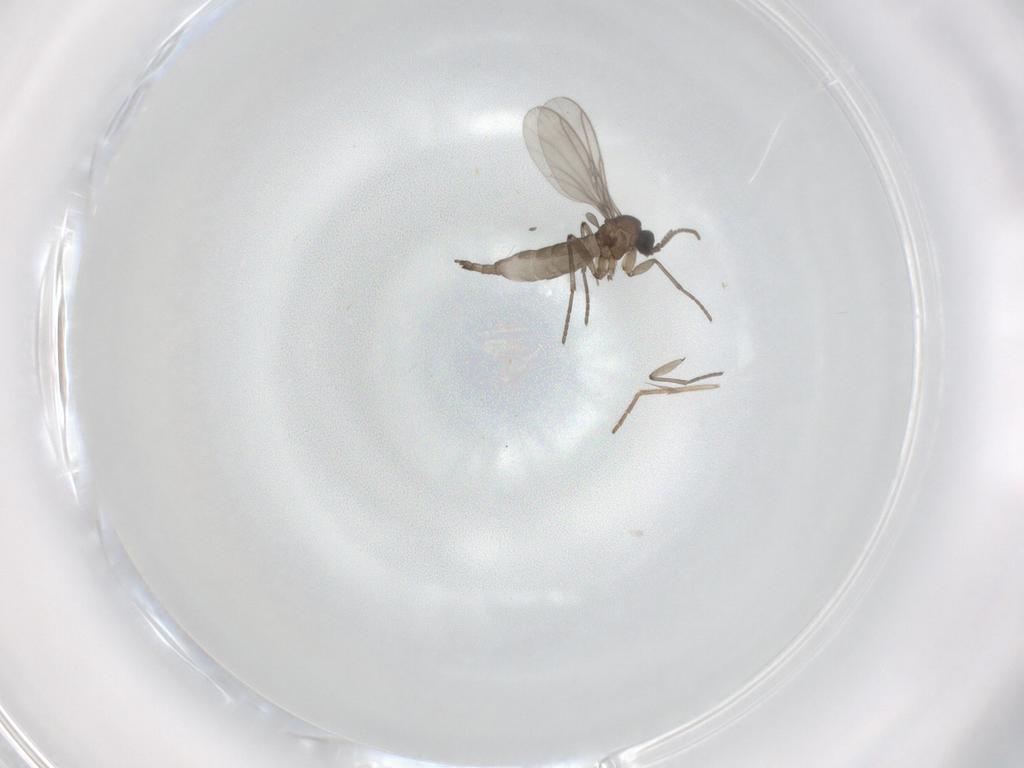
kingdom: Animalia
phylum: Arthropoda
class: Insecta
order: Diptera
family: Sciaridae
